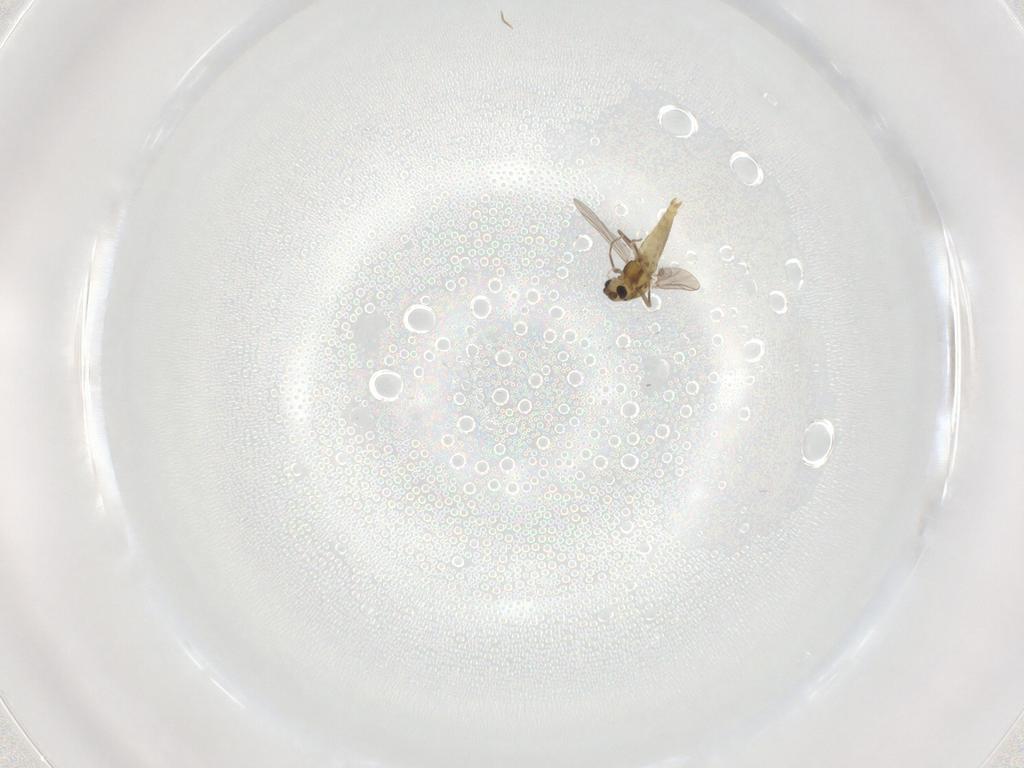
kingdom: Animalia
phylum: Arthropoda
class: Insecta
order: Diptera
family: Chironomidae
